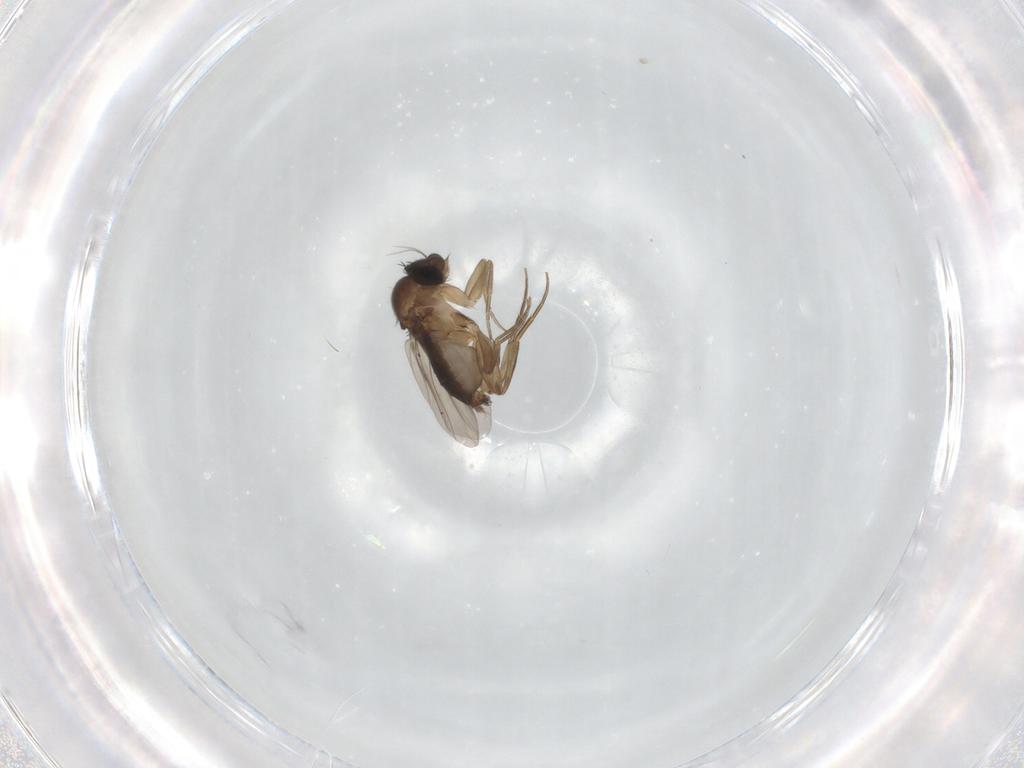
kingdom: Animalia
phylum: Arthropoda
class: Insecta
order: Diptera
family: Phoridae
